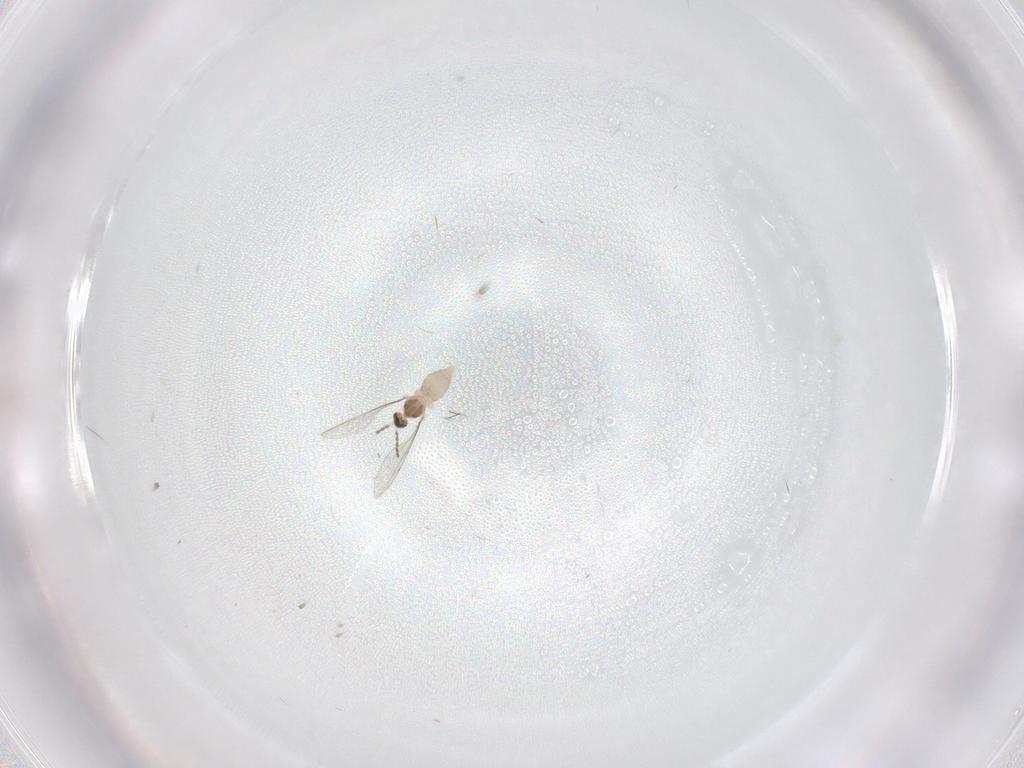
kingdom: Animalia
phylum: Arthropoda
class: Insecta
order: Diptera
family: Cecidomyiidae
